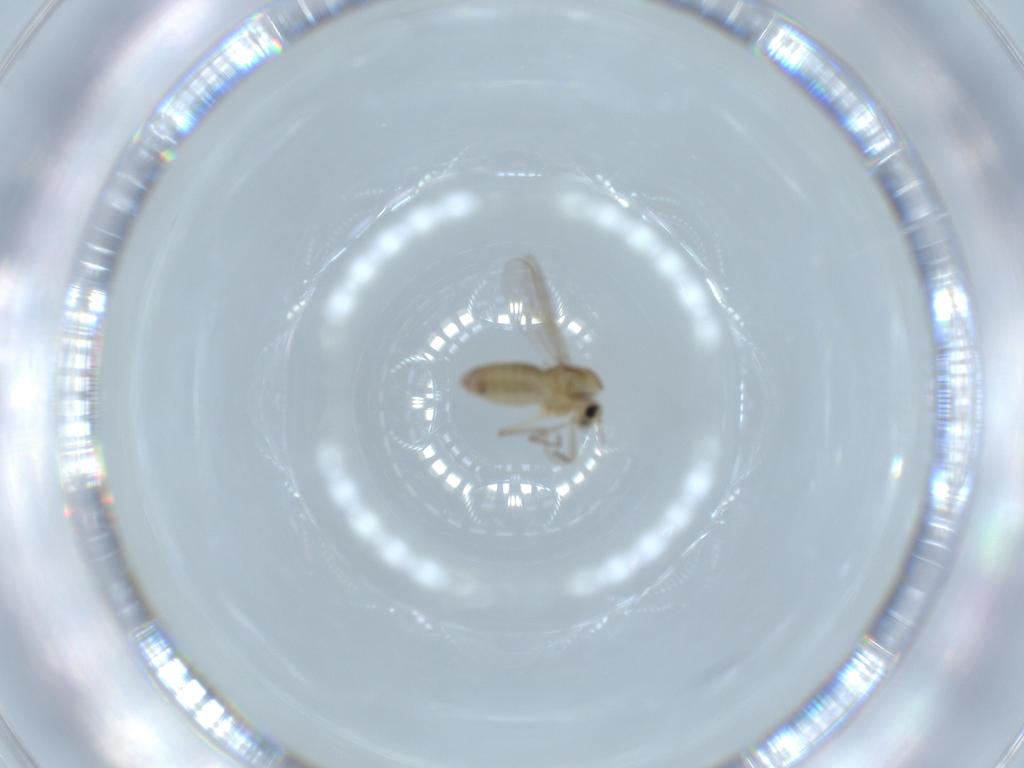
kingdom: Animalia
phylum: Arthropoda
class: Insecta
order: Diptera
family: Chironomidae
